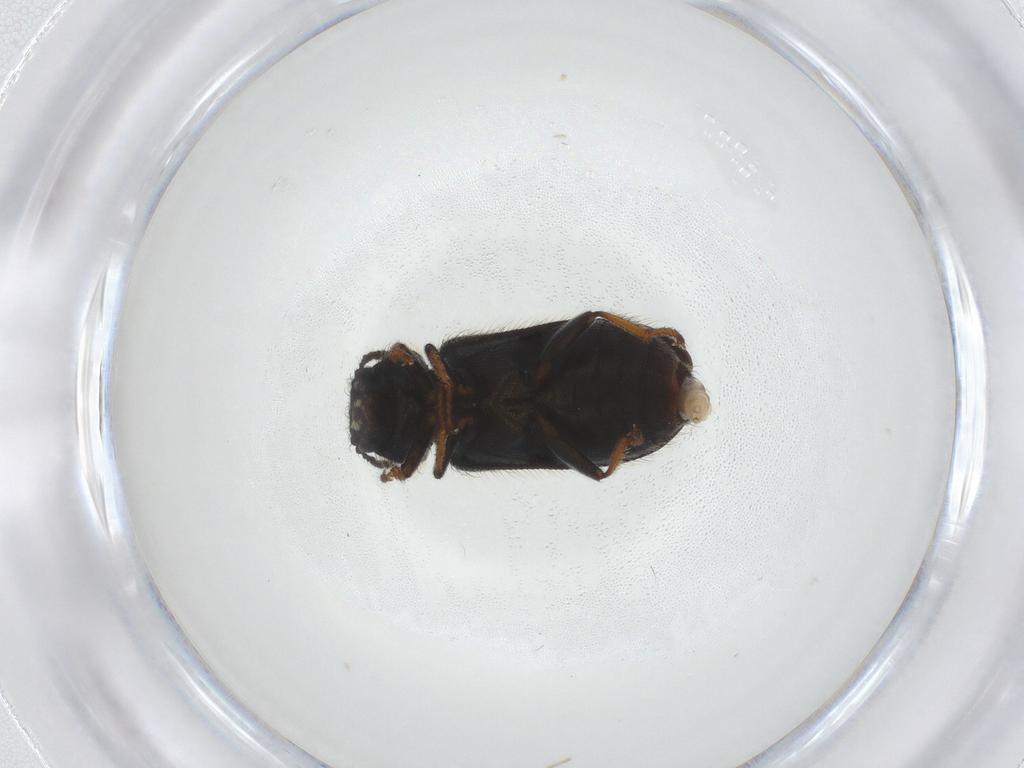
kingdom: Animalia
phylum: Arthropoda
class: Insecta
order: Coleoptera
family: Melyridae
